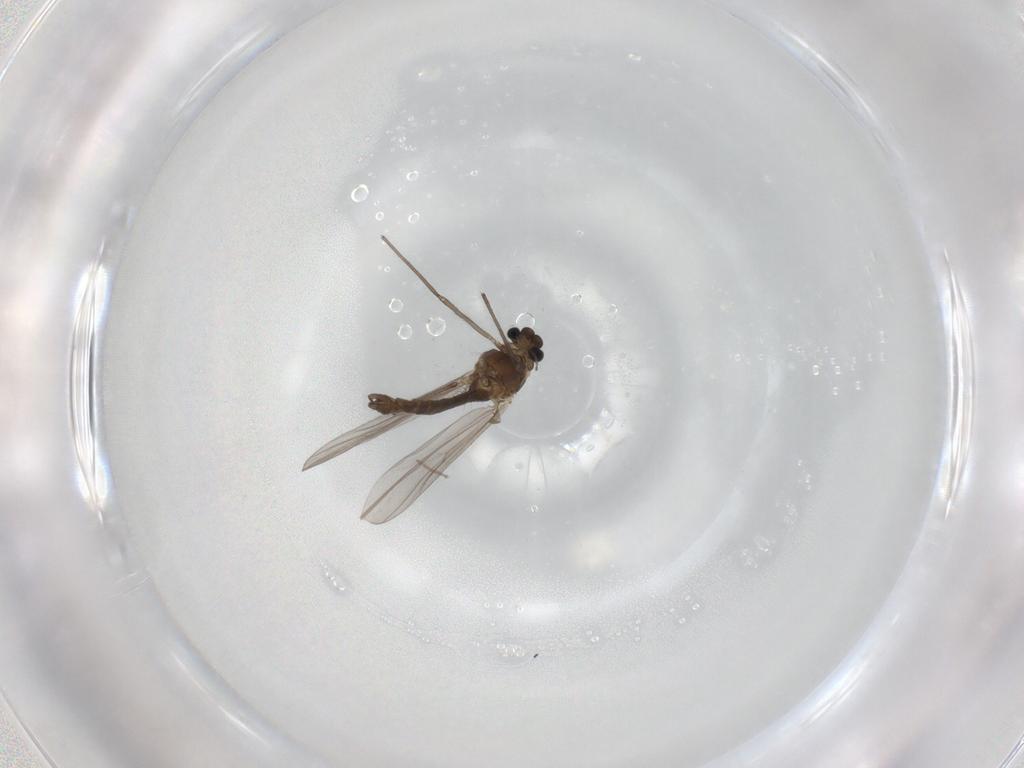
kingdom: Animalia
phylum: Arthropoda
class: Insecta
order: Diptera
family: Chironomidae
